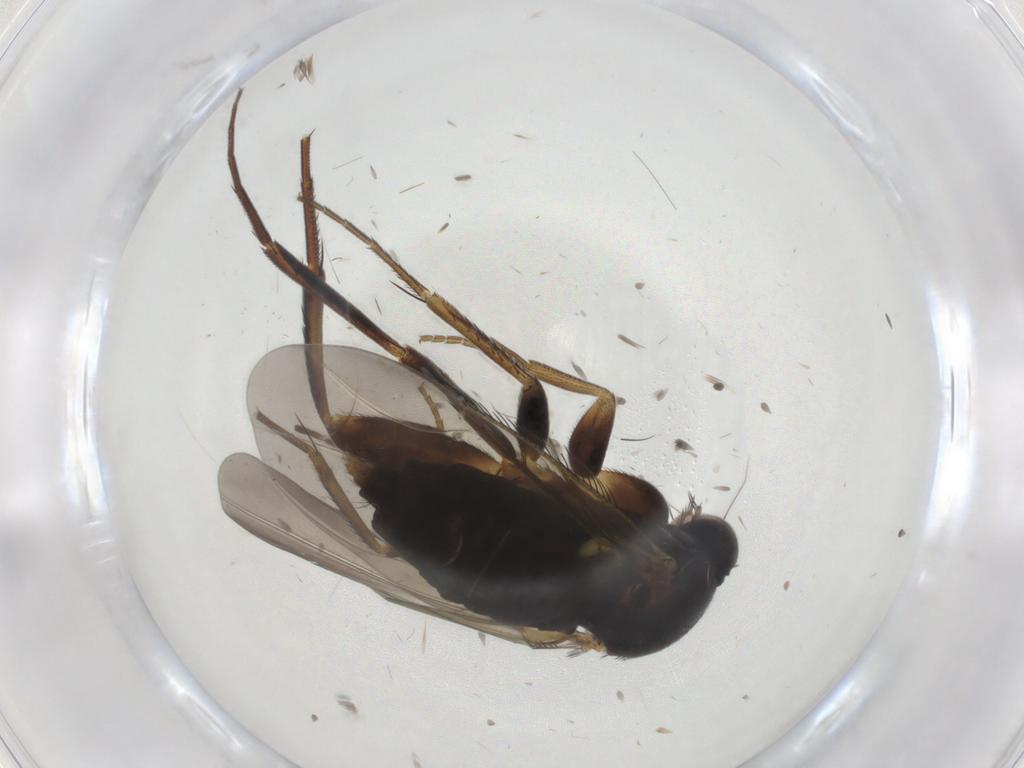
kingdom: Animalia
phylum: Arthropoda
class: Insecta
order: Diptera
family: Phoridae
